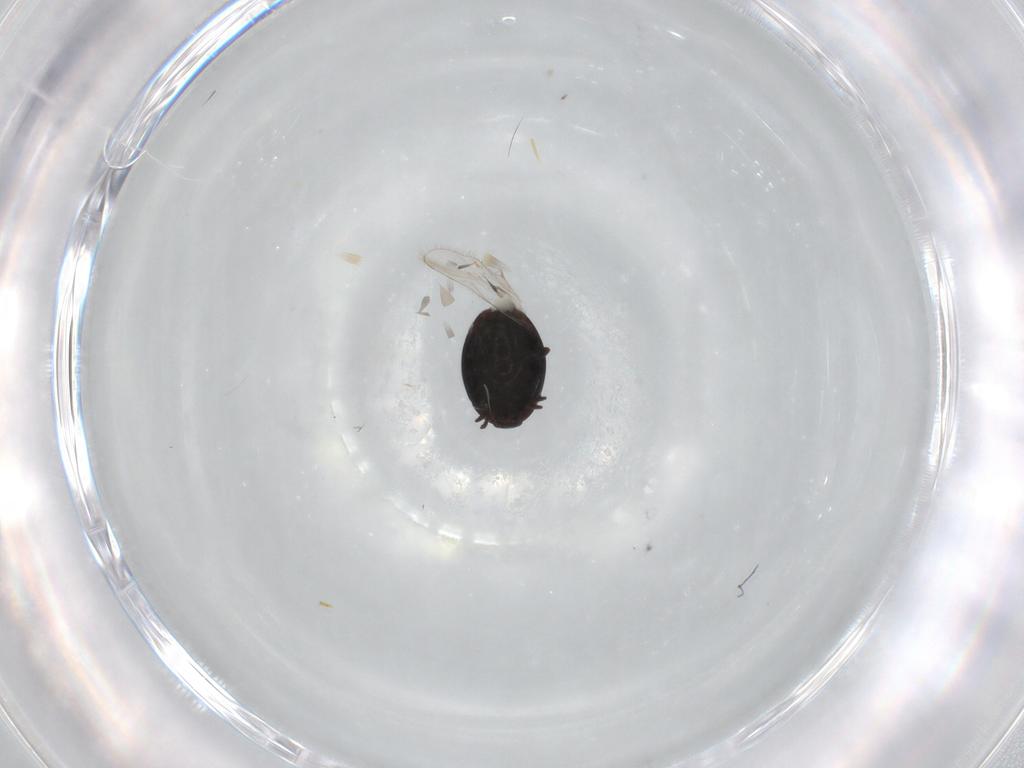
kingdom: Animalia
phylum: Arthropoda
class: Insecta
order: Coleoptera
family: Corylophidae
